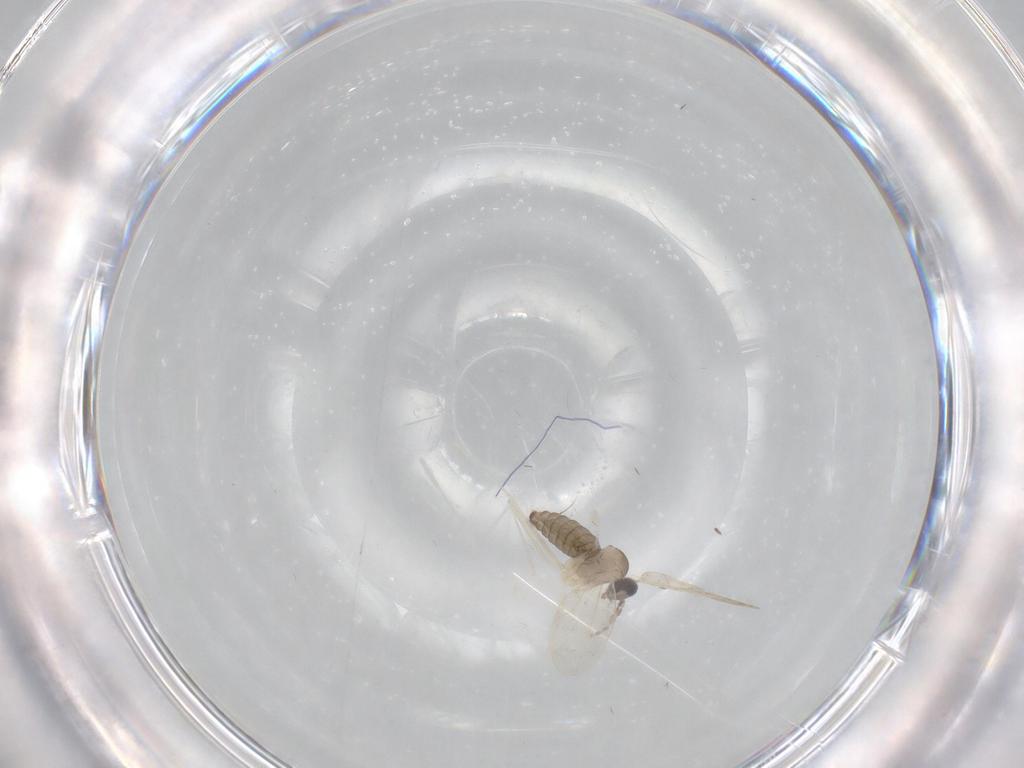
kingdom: Animalia
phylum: Arthropoda
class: Insecta
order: Diptera
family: Cecidomyiidae
